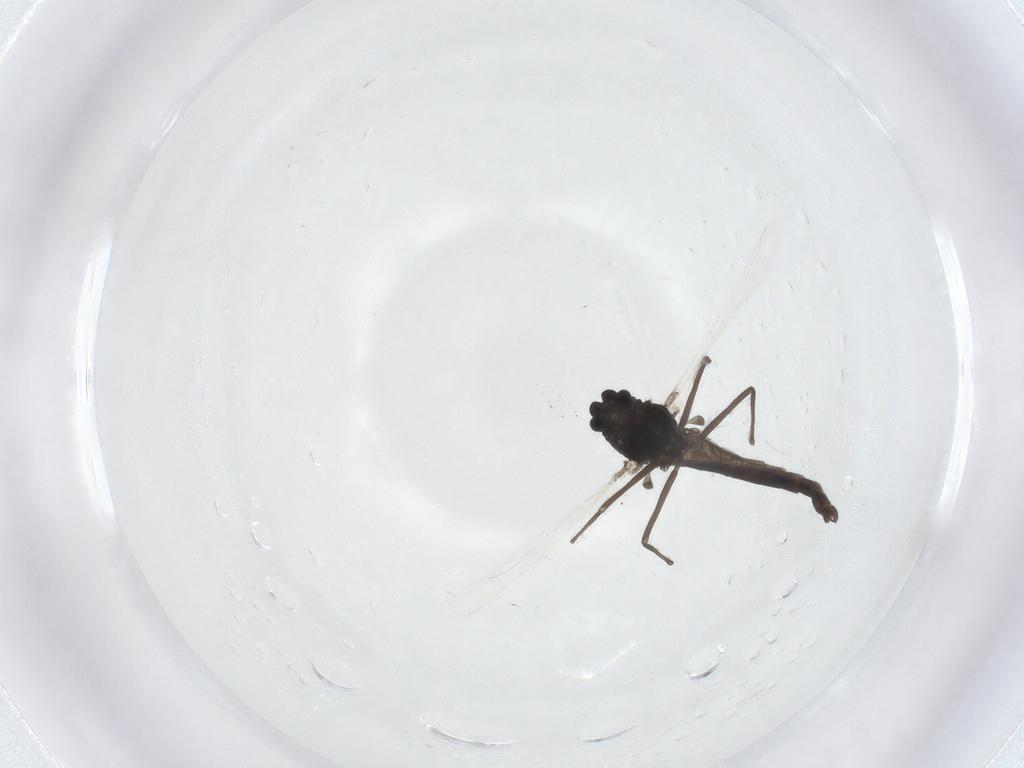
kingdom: Animalia
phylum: Arthropoda
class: Insecta
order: Diptera
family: Chironomidae
